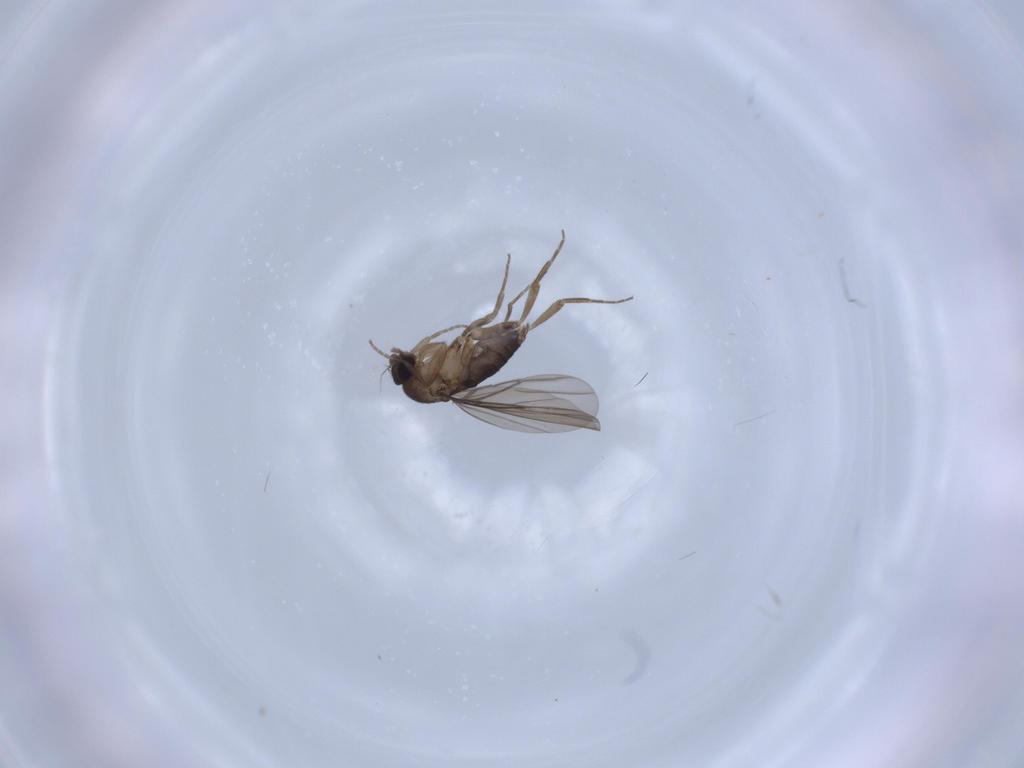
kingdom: Animalia
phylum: Arthropoda
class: Insecta
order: Diptera
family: Phoridae
